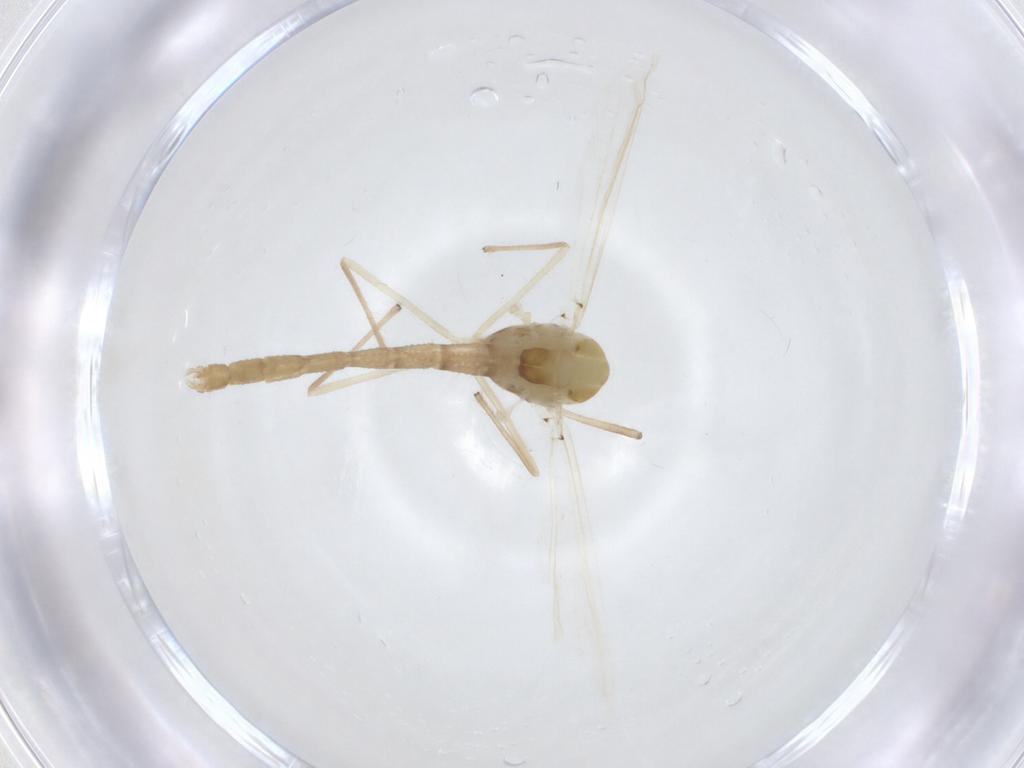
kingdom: Animalia
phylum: Arthropoda
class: Insecta
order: Diptera
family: Chironomidae
